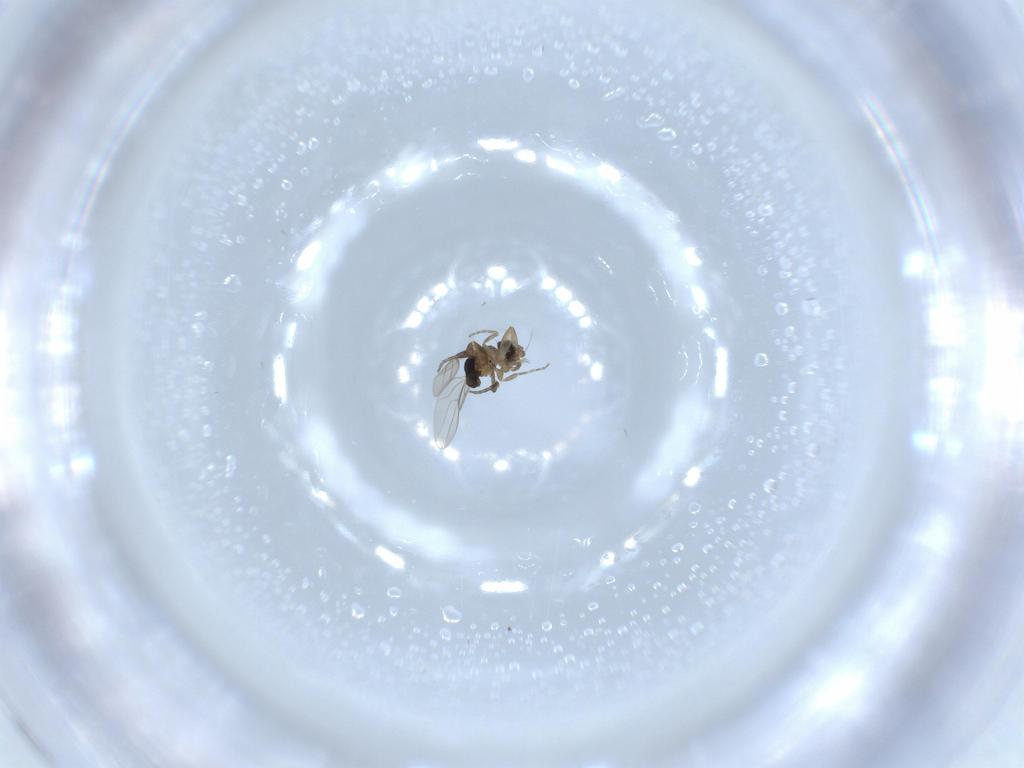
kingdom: Animalia
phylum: Arthropoda
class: Insecta
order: Diptera
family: Phoridae
